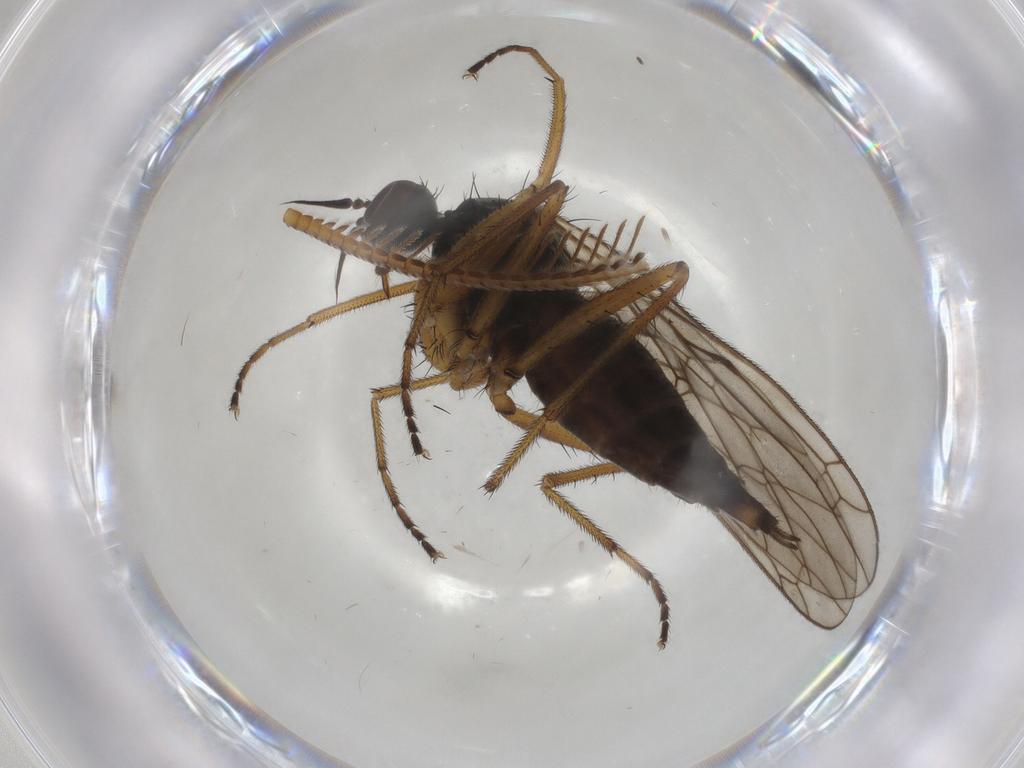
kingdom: Animalia
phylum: Arthropoda
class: Insecta
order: Diptera
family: Empididae
